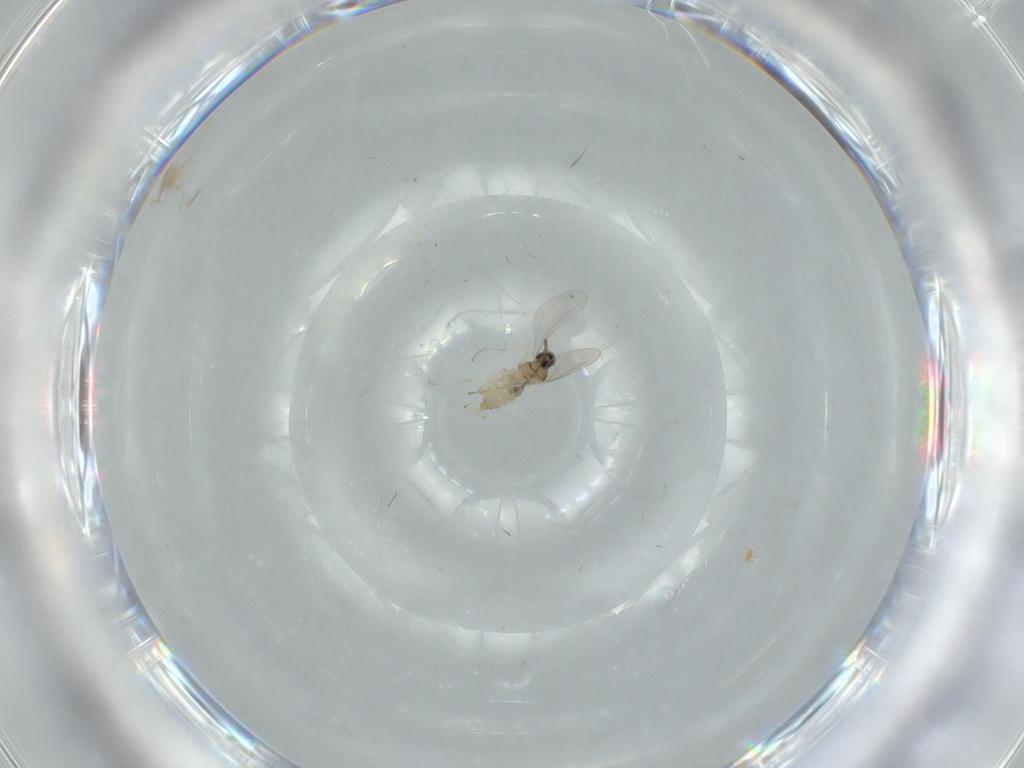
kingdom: Animalia
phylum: Arthropoda
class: Insecta
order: Diptera
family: Cecidomyiidae
